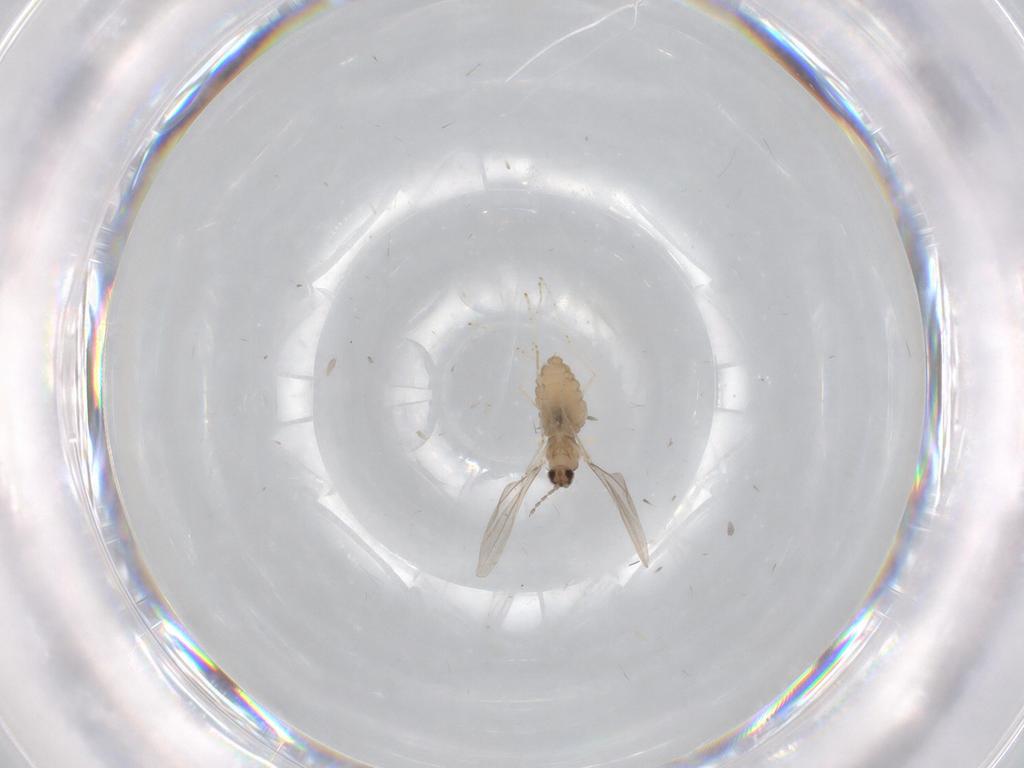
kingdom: Animalia
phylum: Arthropoda
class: Insecta
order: Diptera
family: Cecidomyiidae
